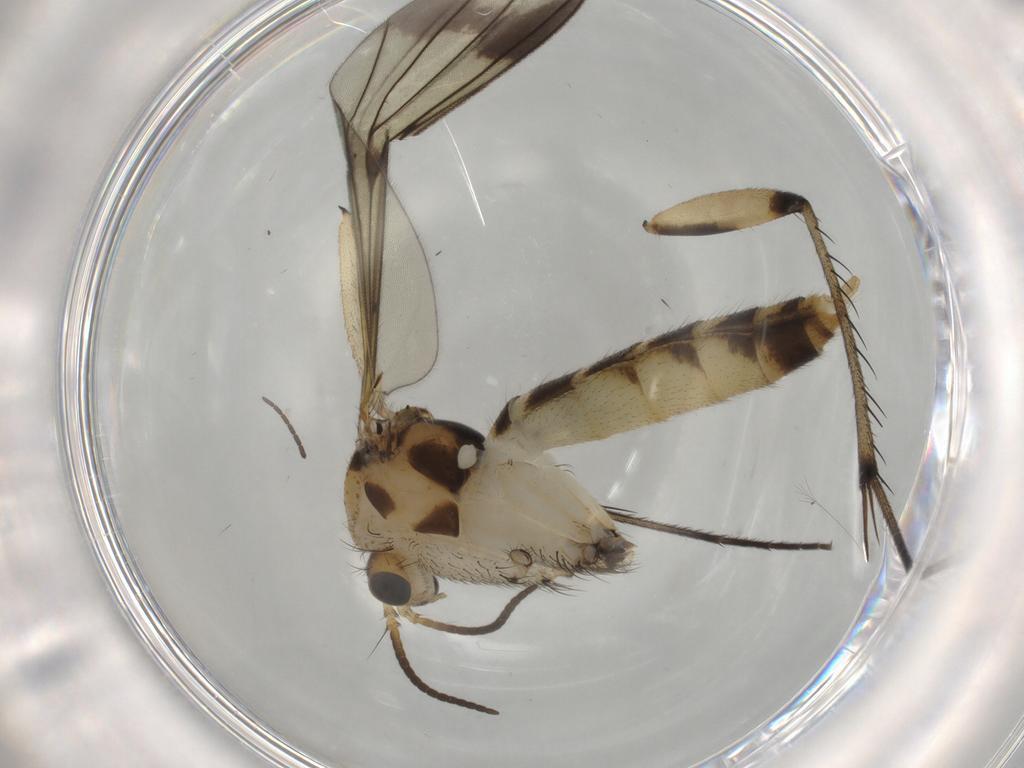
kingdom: Animalia
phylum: Arthropoda
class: Insecta
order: Diptera
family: Mycetophilidae
